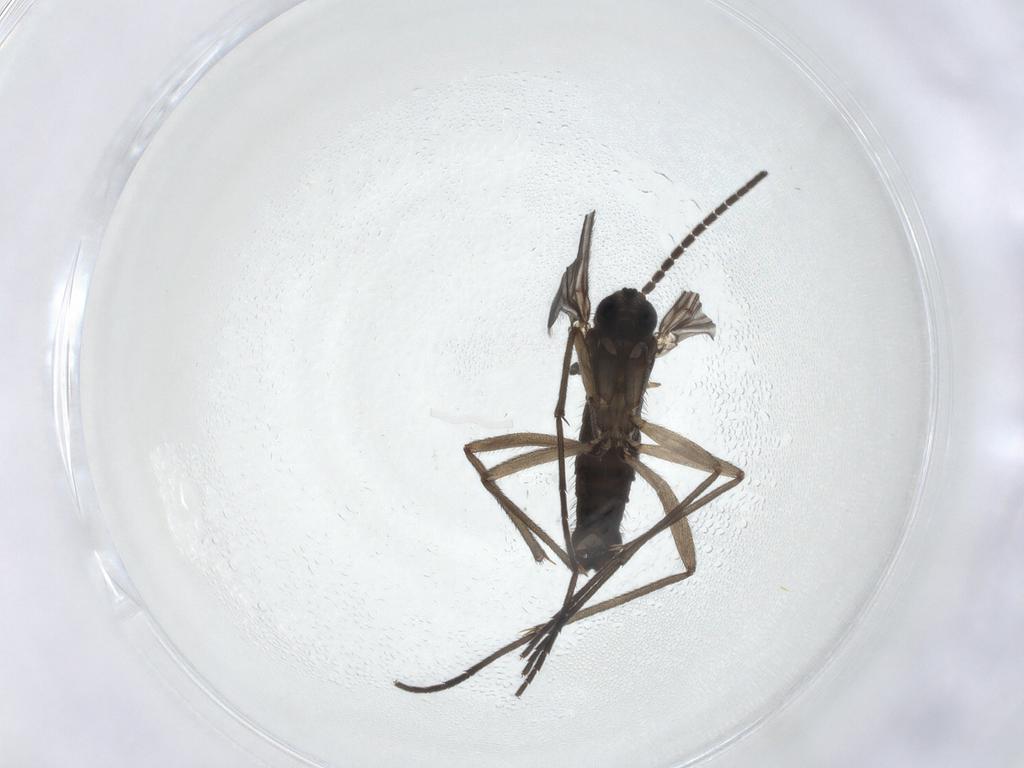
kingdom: Animalia
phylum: Arthropoda
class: Insecta
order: Diptera
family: Sciaridae
